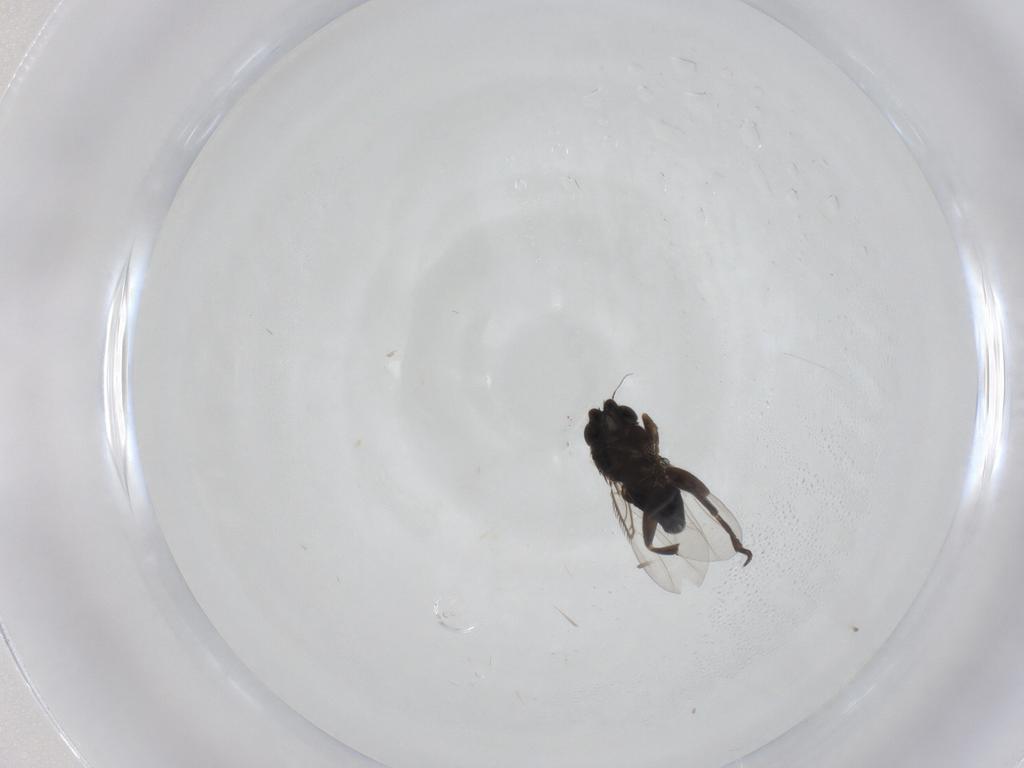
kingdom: Animalia
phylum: Arthropoda
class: Insecta
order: Diptera
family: Phoridae
